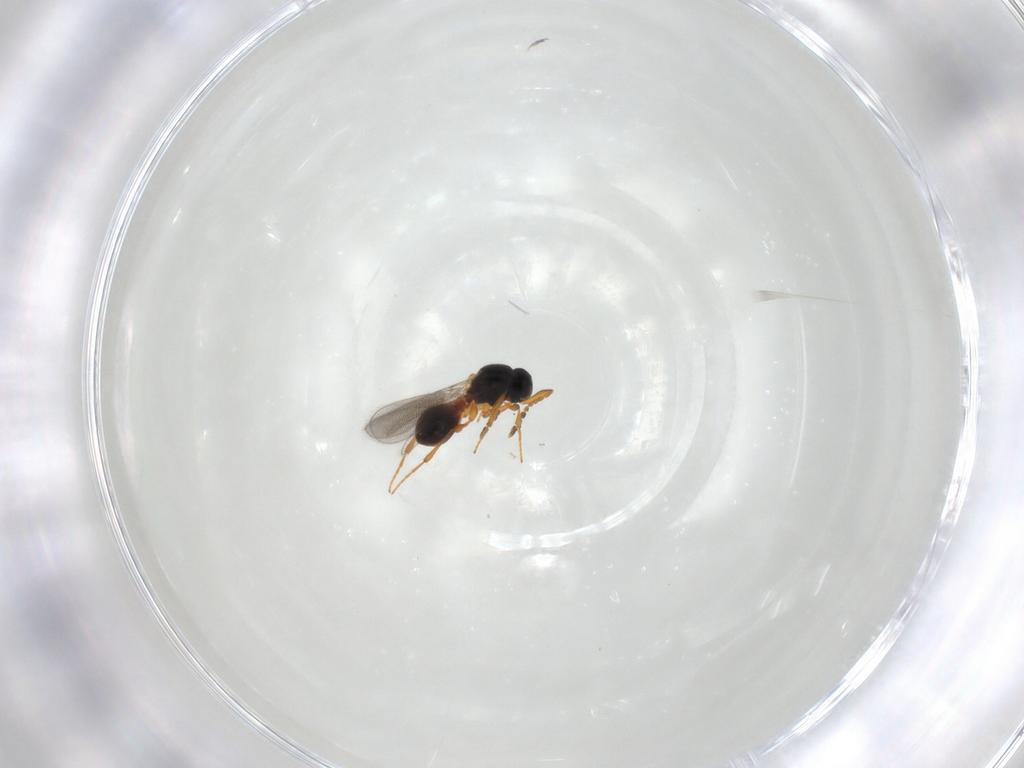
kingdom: Animalia
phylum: Arthropoda
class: Insecta
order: Hymenoptera
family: Platygastridae
